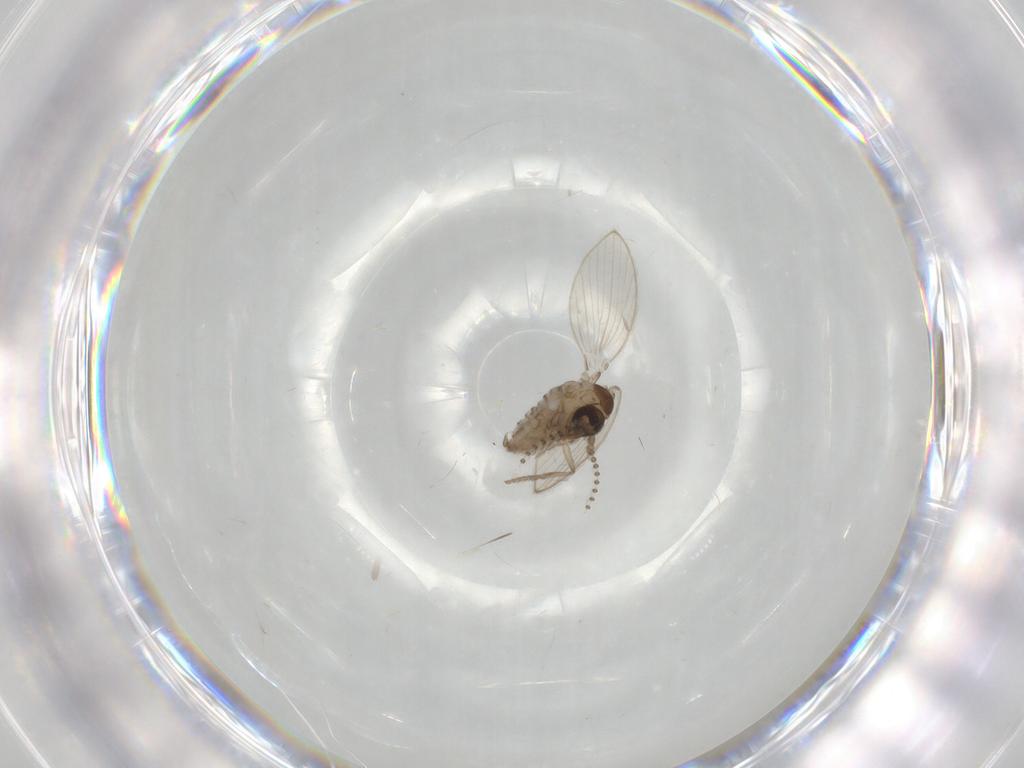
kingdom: Animalia
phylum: Arthropoda
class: Insecta
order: Diptera
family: Psychodidae
